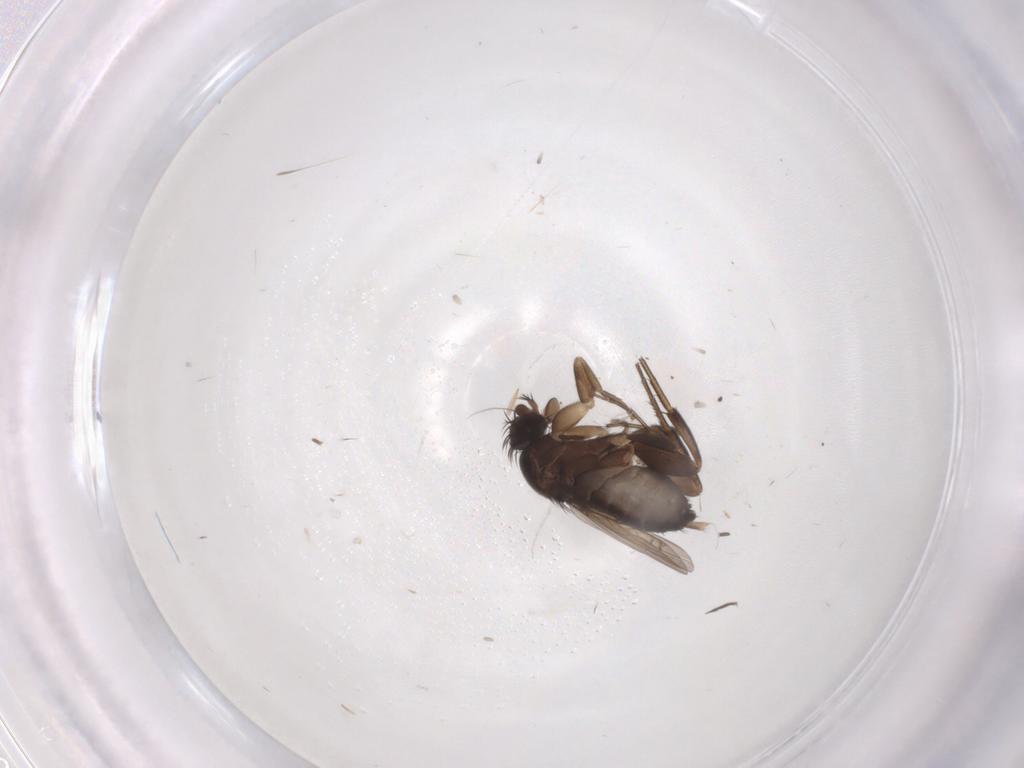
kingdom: Animalia
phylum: Arthropoda
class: Insecta
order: Diptera
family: Phoridae
